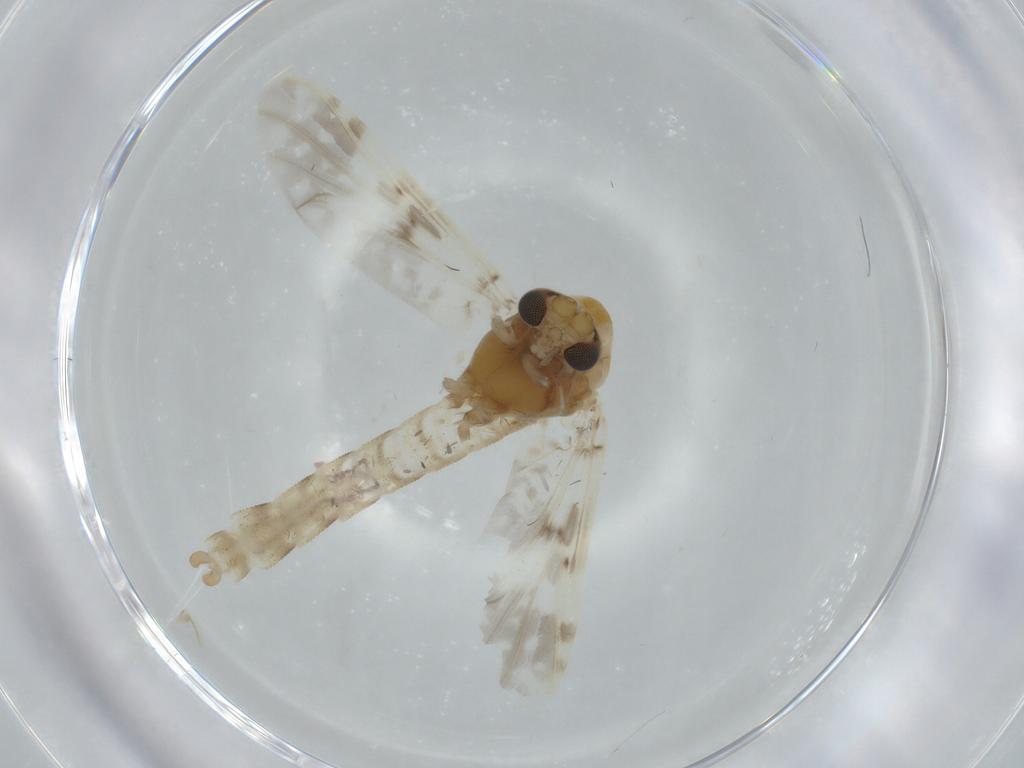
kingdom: Animalia
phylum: Arthropoda
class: Insecta
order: Diptera
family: Chironomidae
